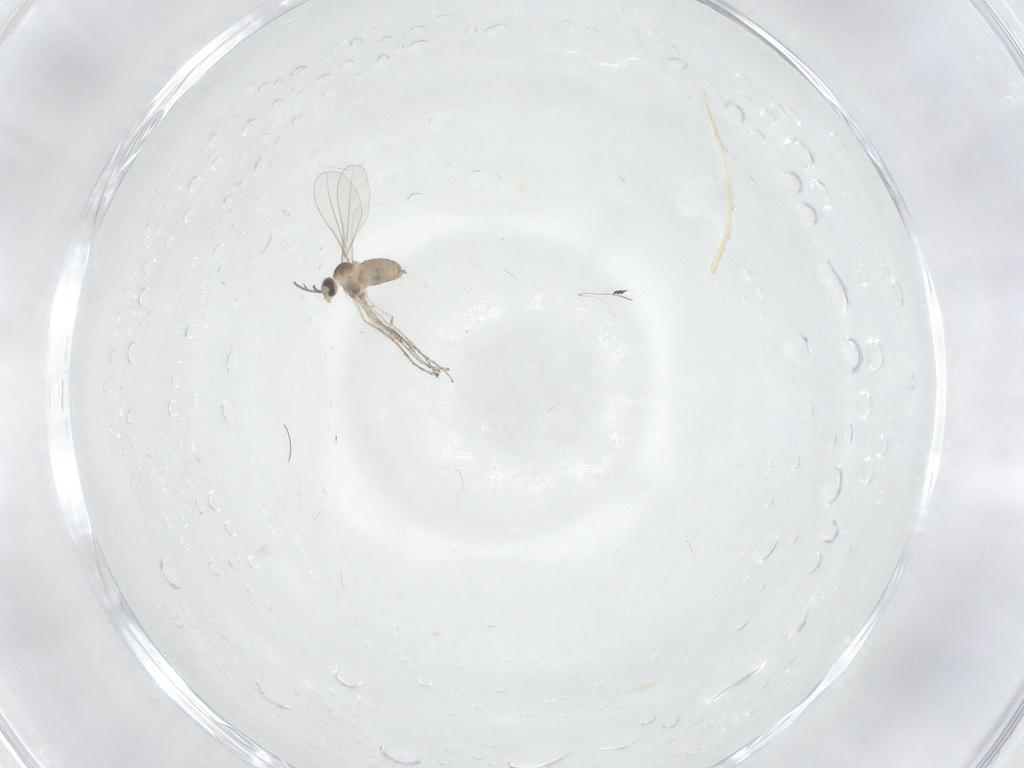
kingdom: Animalia
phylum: Arthropoda
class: Insecta
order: Diptera
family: Cecidomyiidae
